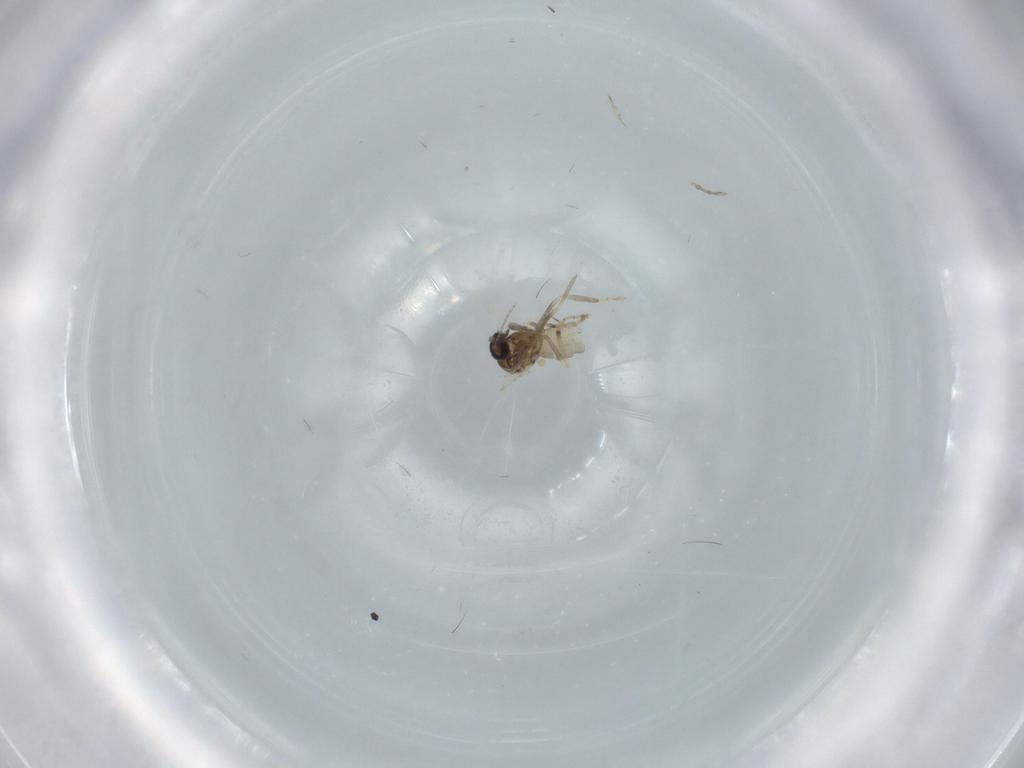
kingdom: Animalia
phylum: Arthropoda
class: Insecta
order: Diptera
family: Ceratopogonidae
